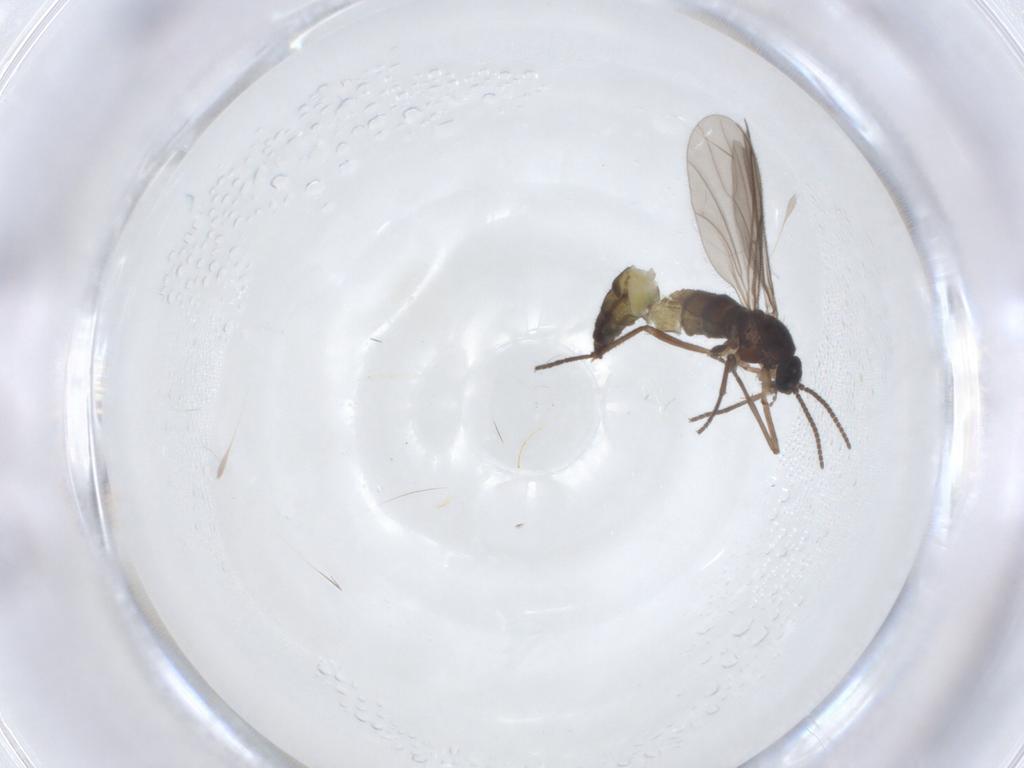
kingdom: Animalia
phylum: Arthropoda
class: Insecta
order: Diptera
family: Sciaridae
